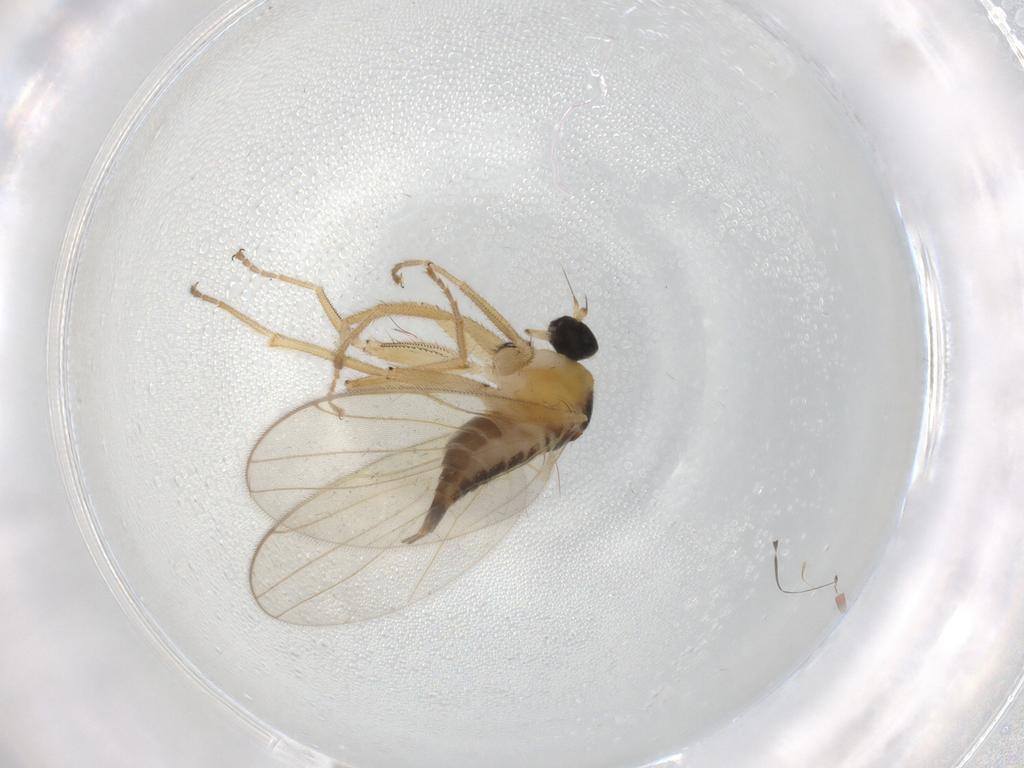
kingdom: Animalia
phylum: Arthropoda
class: Insecta
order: Diptera
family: Hybotidae
